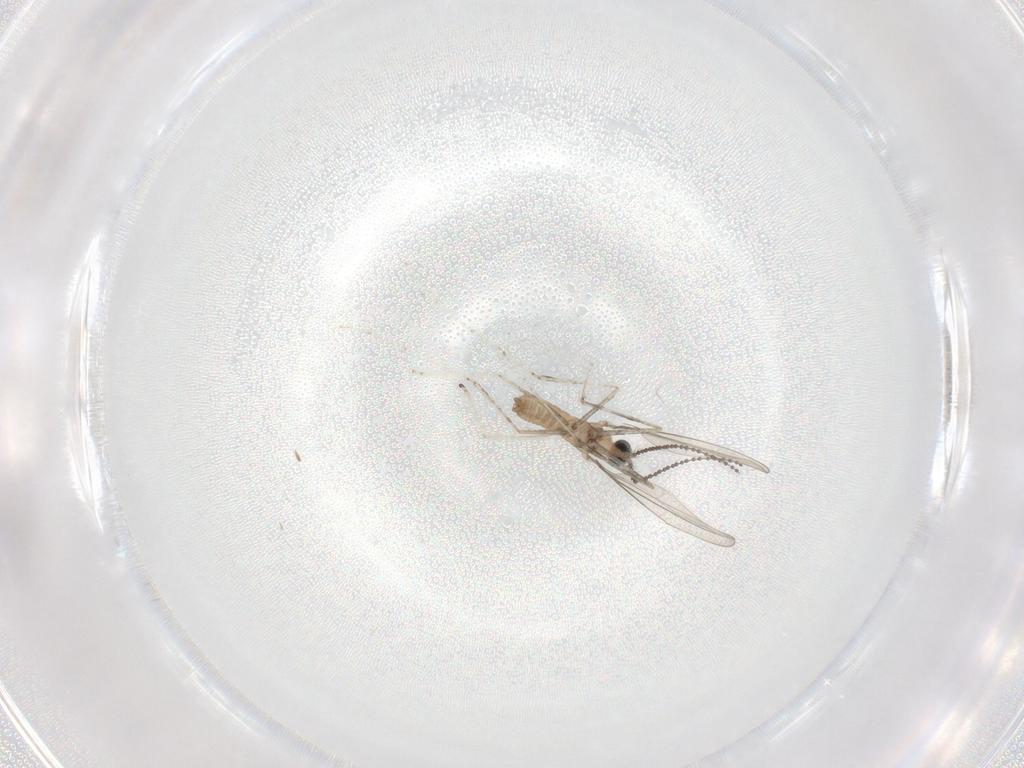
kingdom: Animalia
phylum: Arthropoda
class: Insecta
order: Diptera
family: Cecidomyiidae
